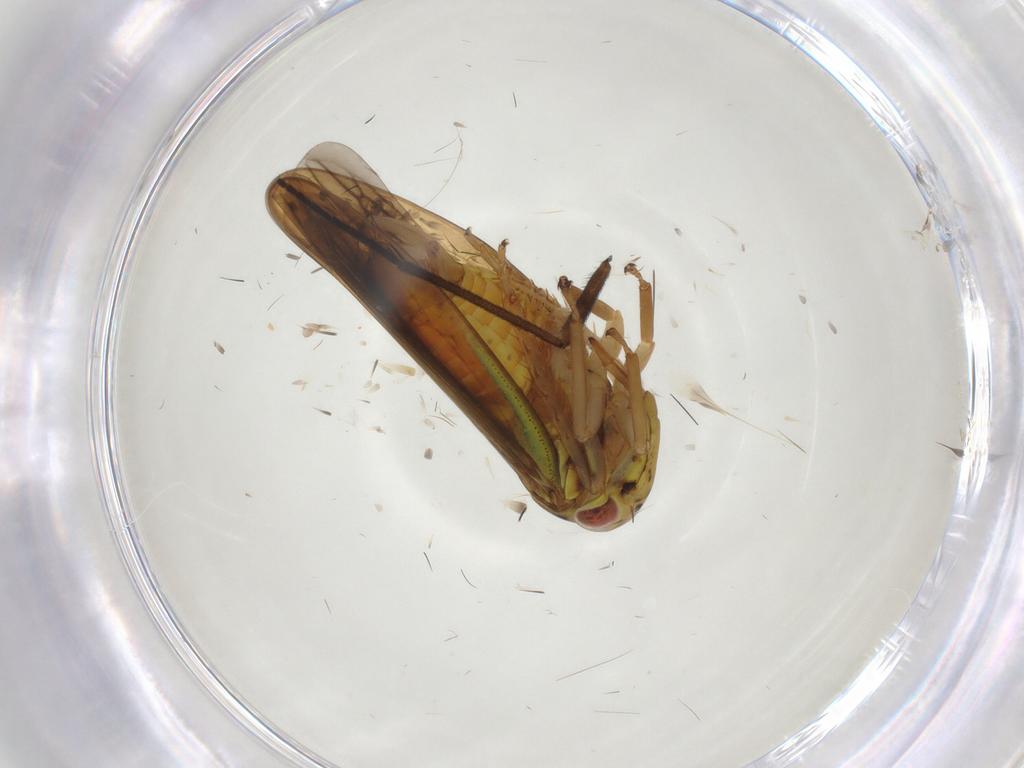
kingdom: Animalia
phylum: Arthropoda
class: Insecta
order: Hemiptera
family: Cicadellidae
